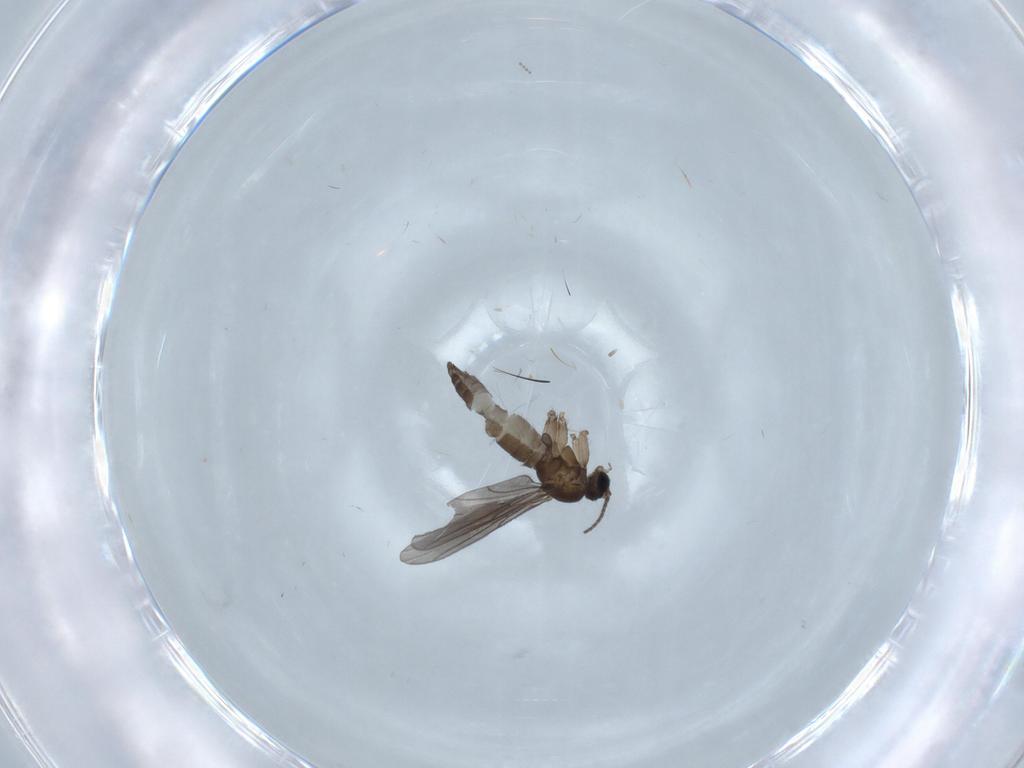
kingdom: Animalia
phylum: Arthropoda
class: Insecta
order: Diptera
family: Sciaridae
